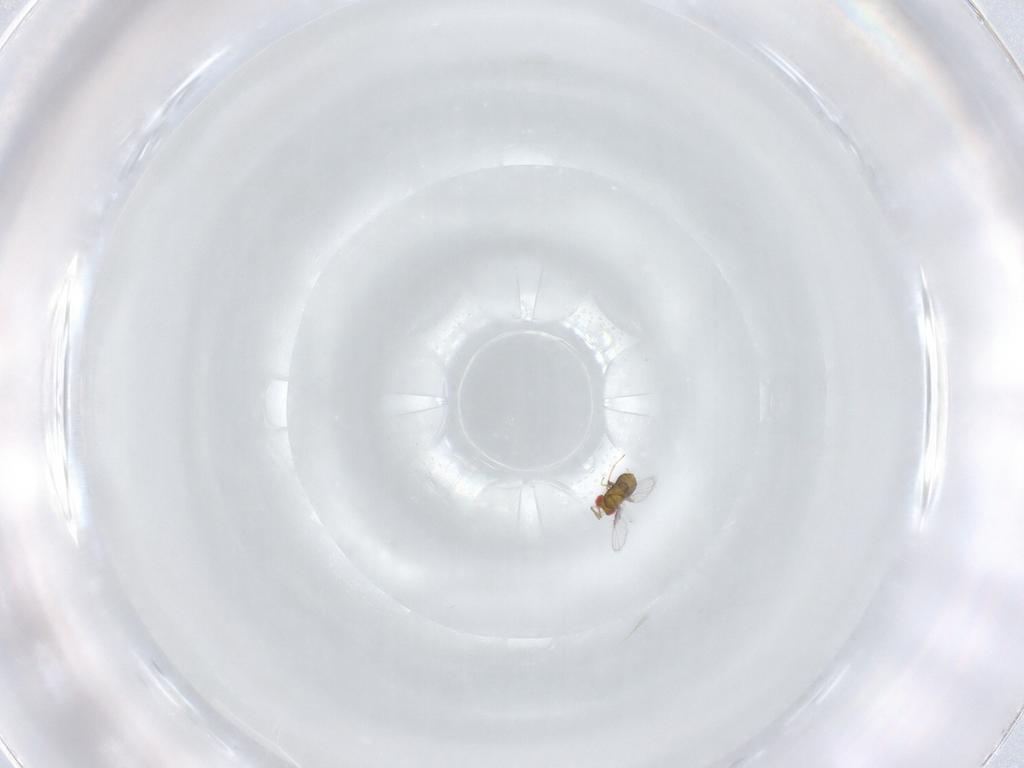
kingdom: Animalia
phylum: Arthropoda
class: Insecta
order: Hymenoptera
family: Trichogrammatidae
